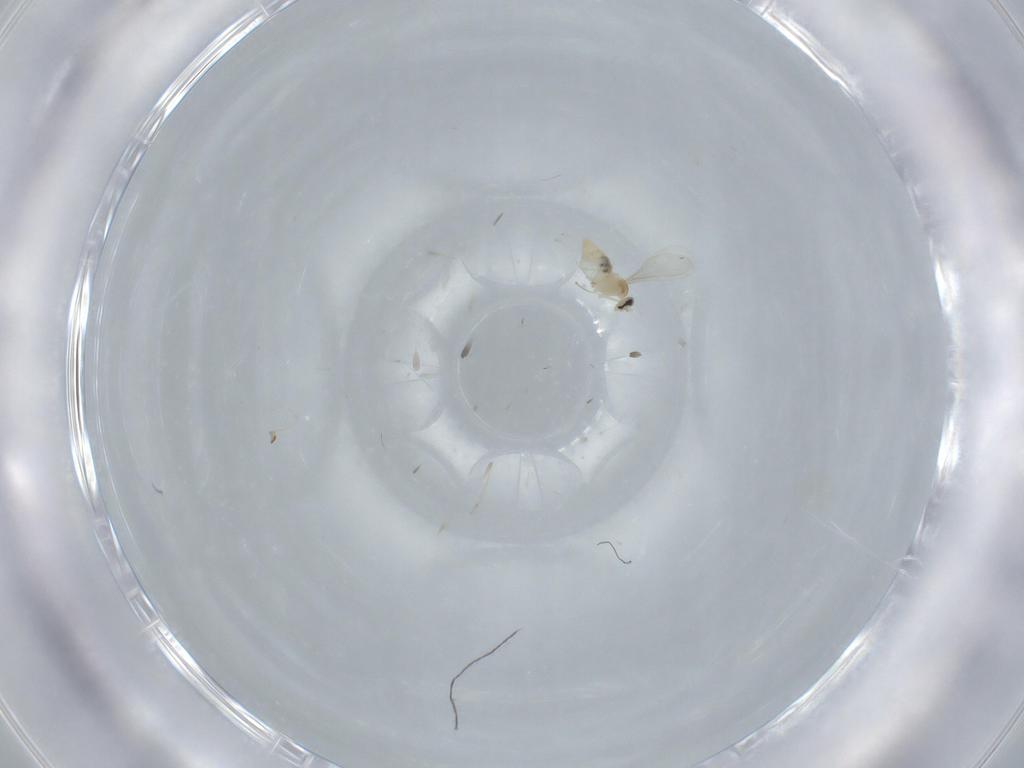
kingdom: Animalia
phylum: Arthropoda
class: Insecta
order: Diptera
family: Cecidomyiidae
